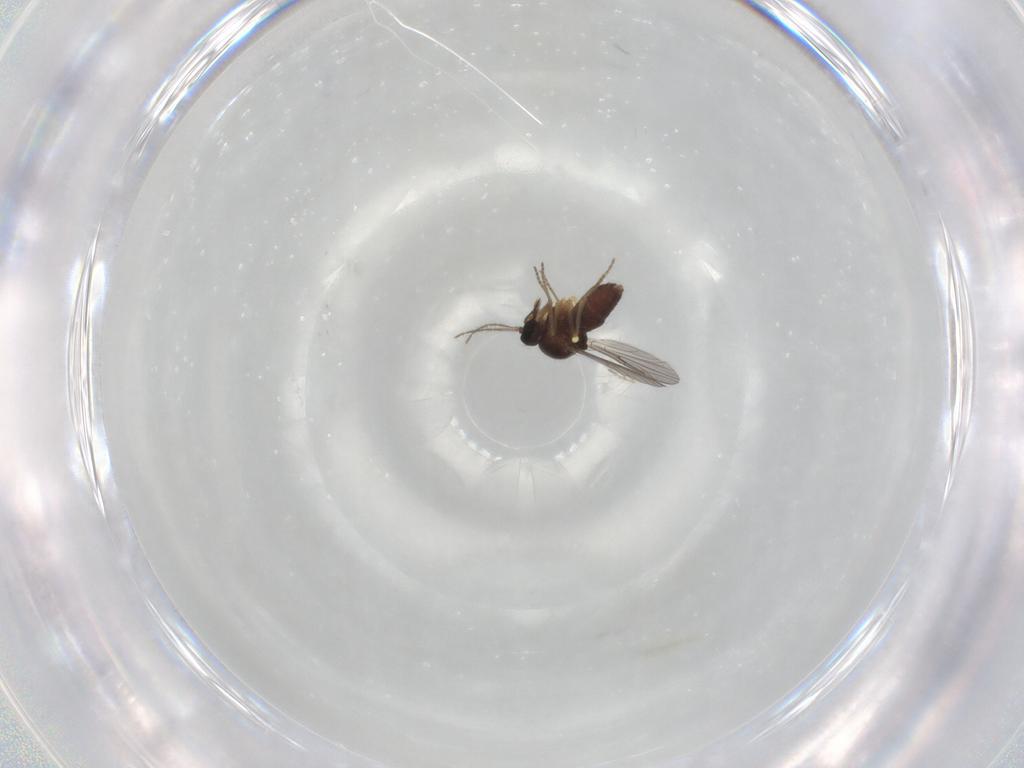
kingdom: Animalia
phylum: Arthropoda
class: Insecta
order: Diptera
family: Ceratopogonidae
